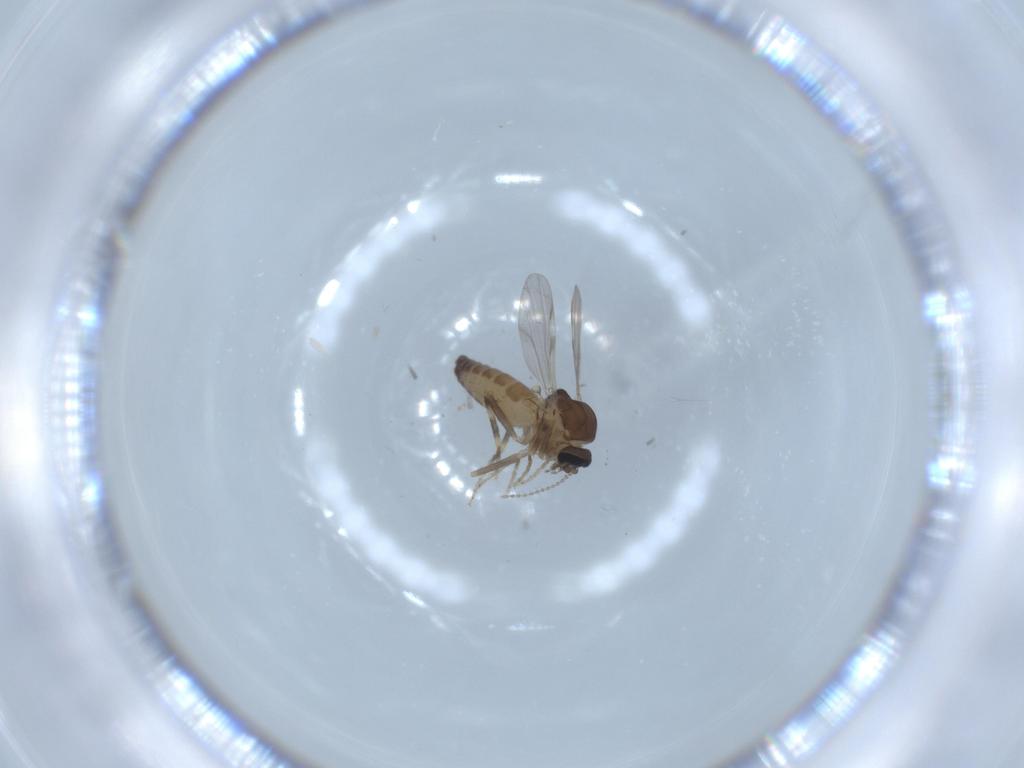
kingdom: Animalia
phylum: Arthropoda
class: Insecta
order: Diptera
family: Ceratopogonidae
